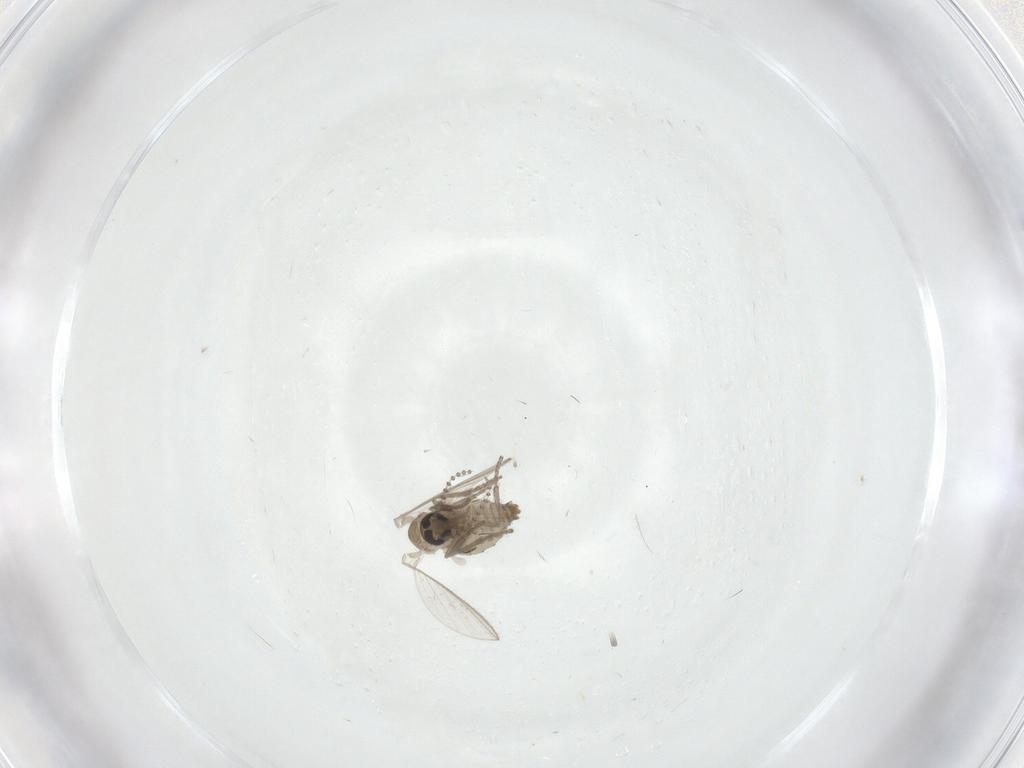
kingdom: Animalia
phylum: Arthropoda
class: Insecta
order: Diptera
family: Psychodidae
